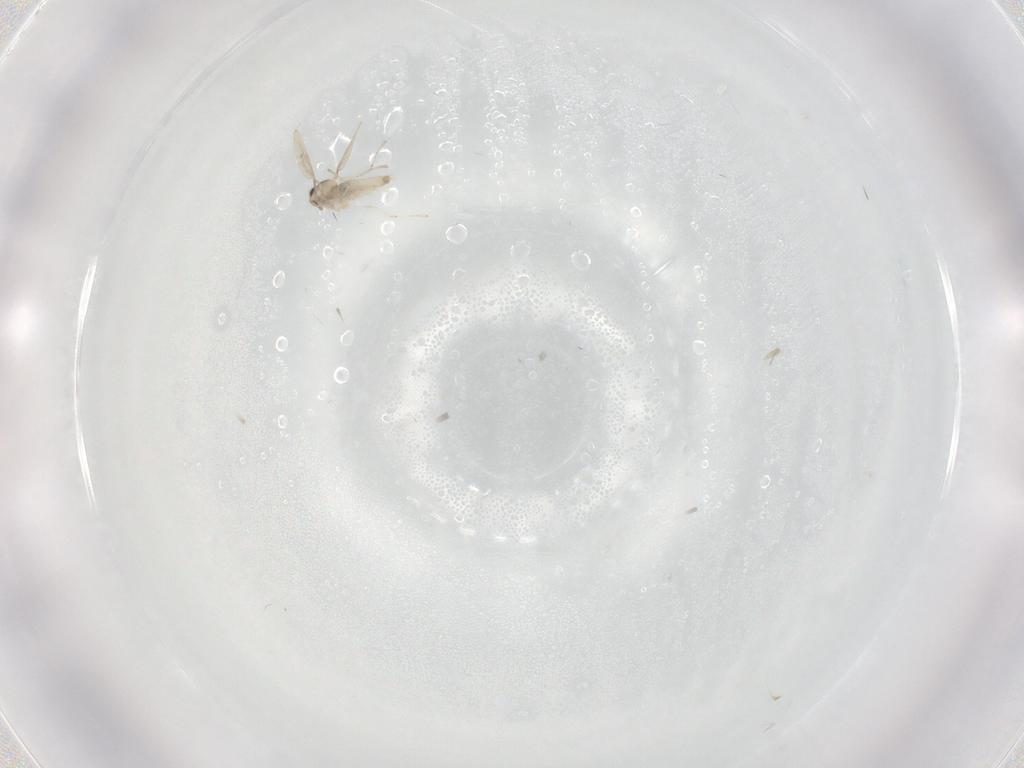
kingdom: Animalia
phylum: Arthropoda
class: Insecta
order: Diptera
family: Cecidomyiidae
